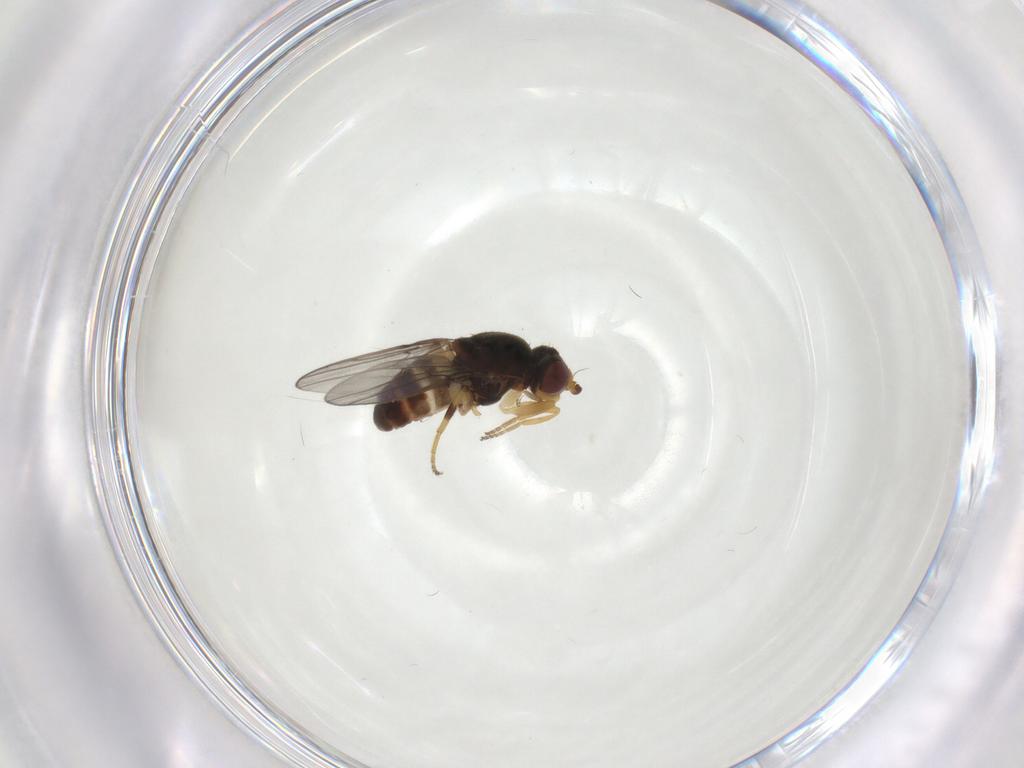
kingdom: Animalia
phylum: Arthropoda
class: Insecta
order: Diptera
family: Chloropidae
